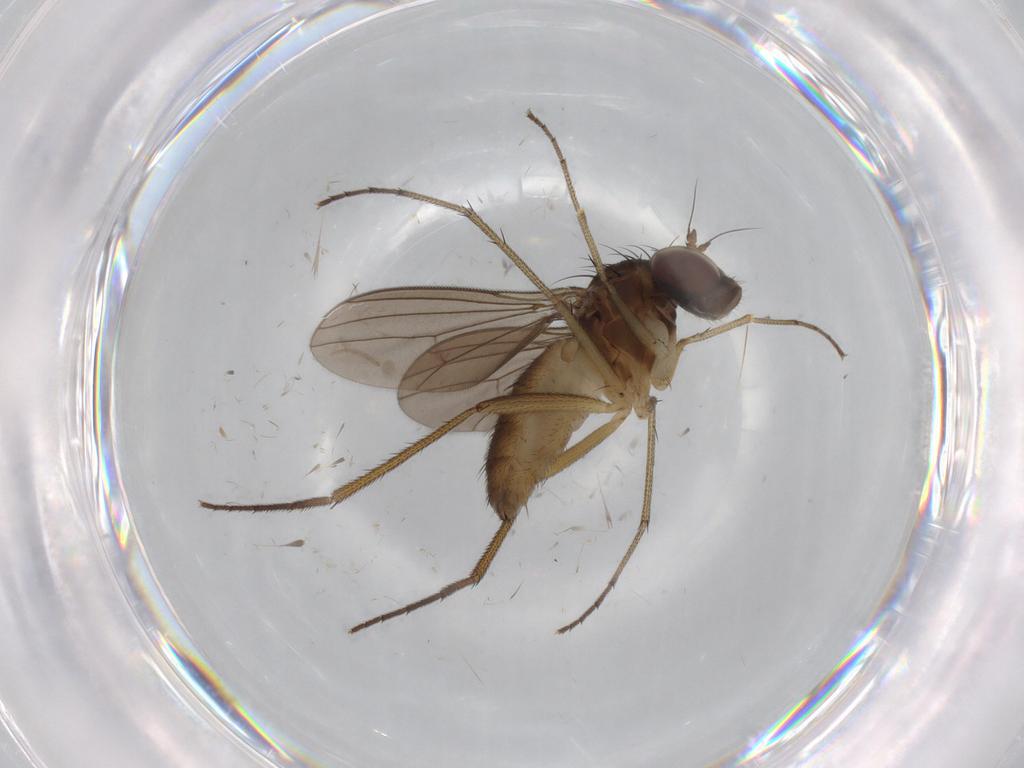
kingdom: Animalia
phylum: Arthropoda
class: Insecta
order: Diptera
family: Dolichopodidae
